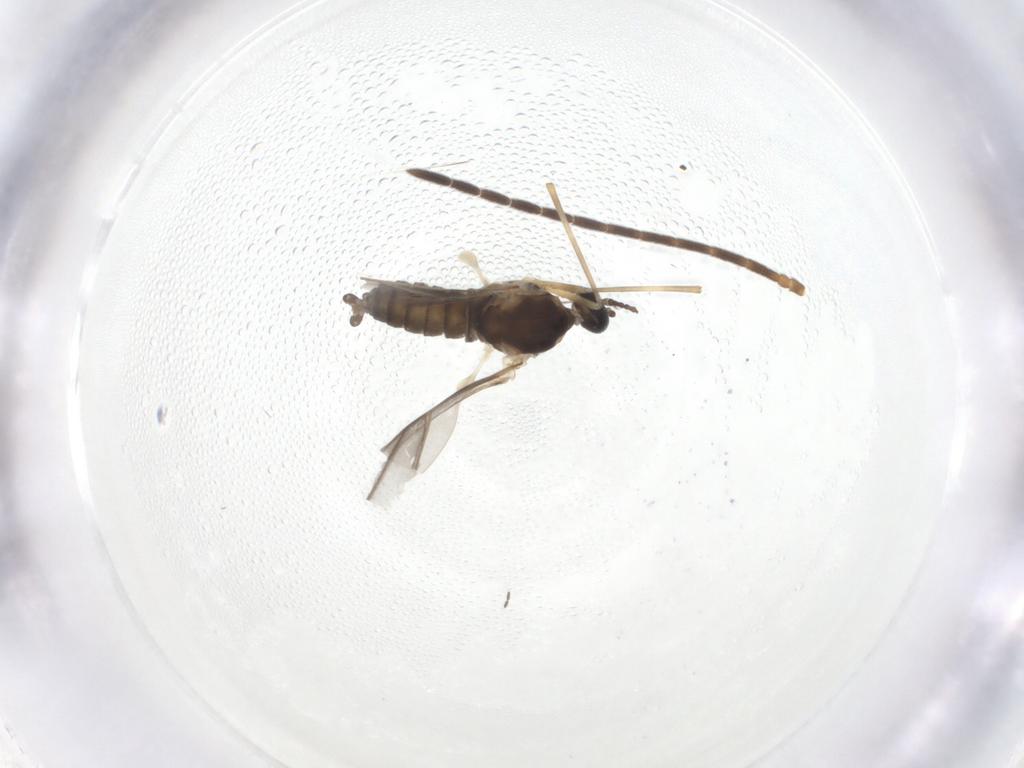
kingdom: Animalia
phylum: Arthropoda
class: Insecta
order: Diptera
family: Cecidomyiidae
